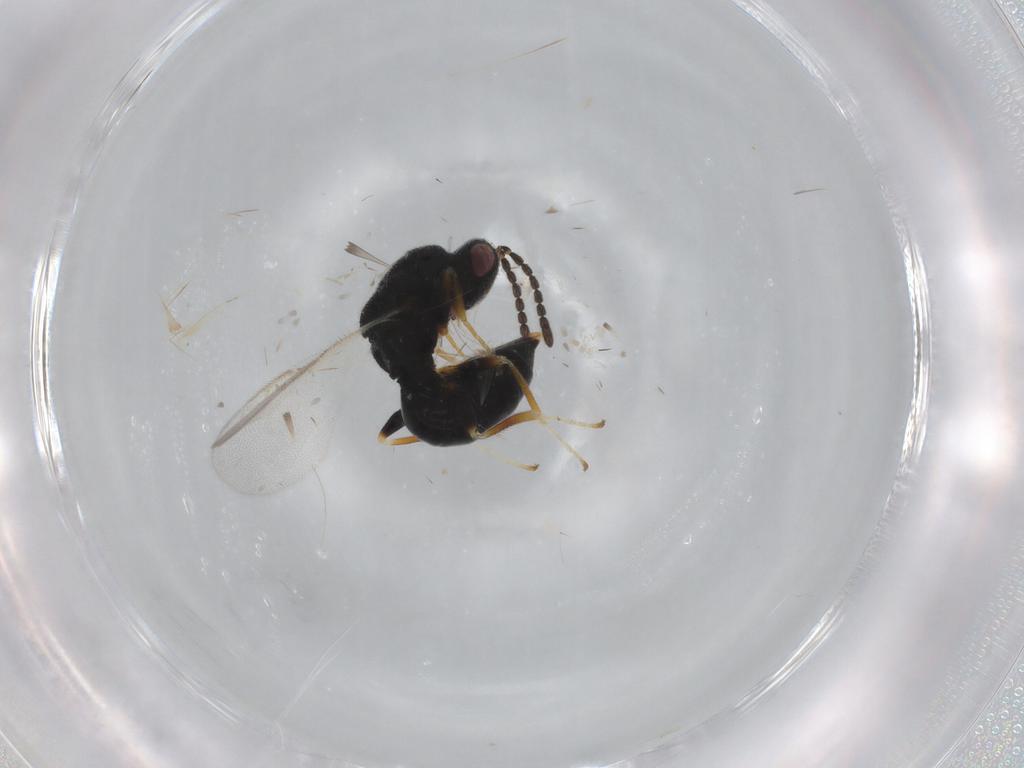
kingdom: Animalia
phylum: Arthropoda
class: Insecta
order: Hymenoptera
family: Eurytomidae
